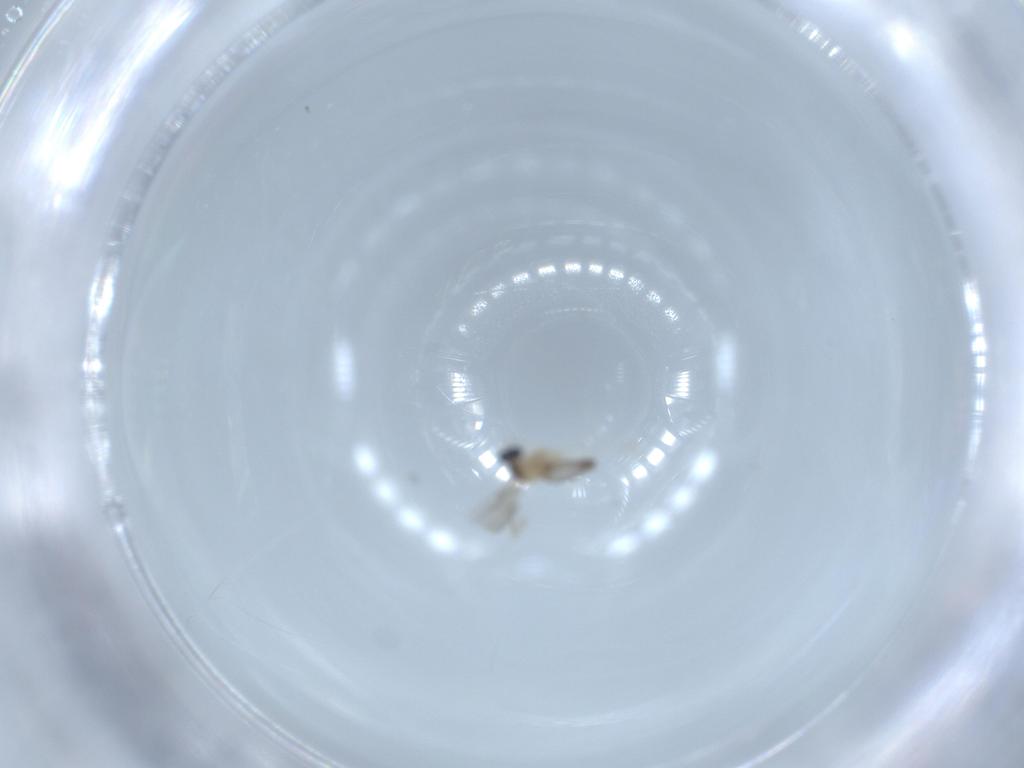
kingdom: Animalia
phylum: Arthropoda
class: Insecta
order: Diptera
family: Cecidomyiidae
